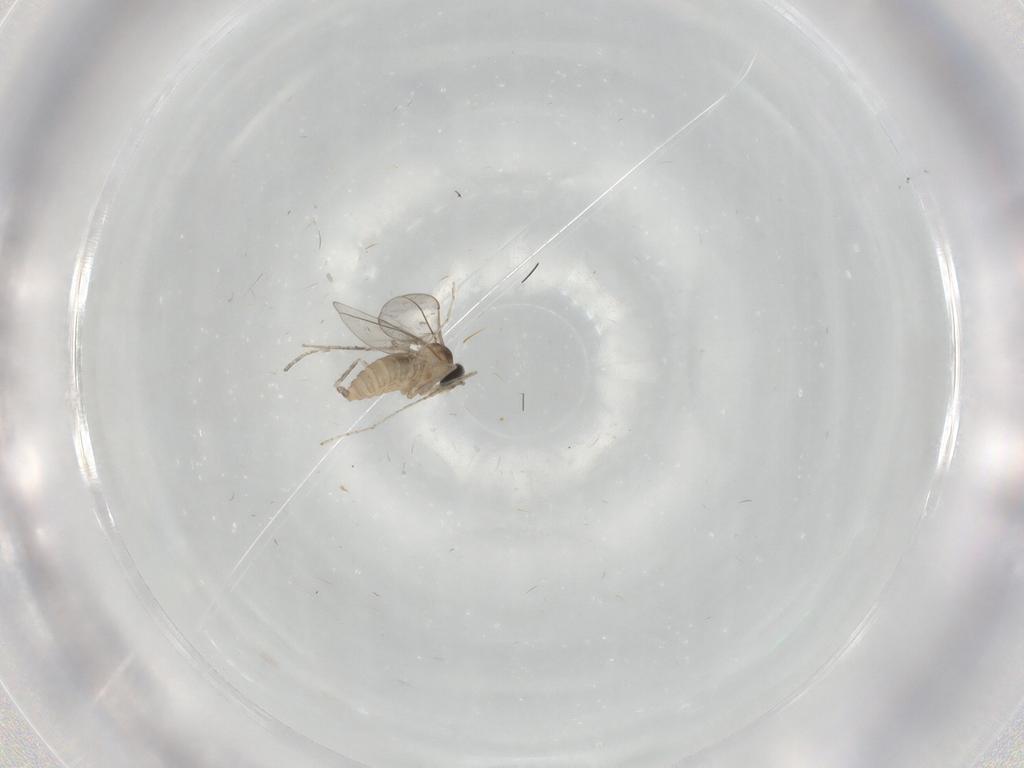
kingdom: Animalia
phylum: Arthropoda
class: Insecta
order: Diptera
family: Cecidomyiidae
